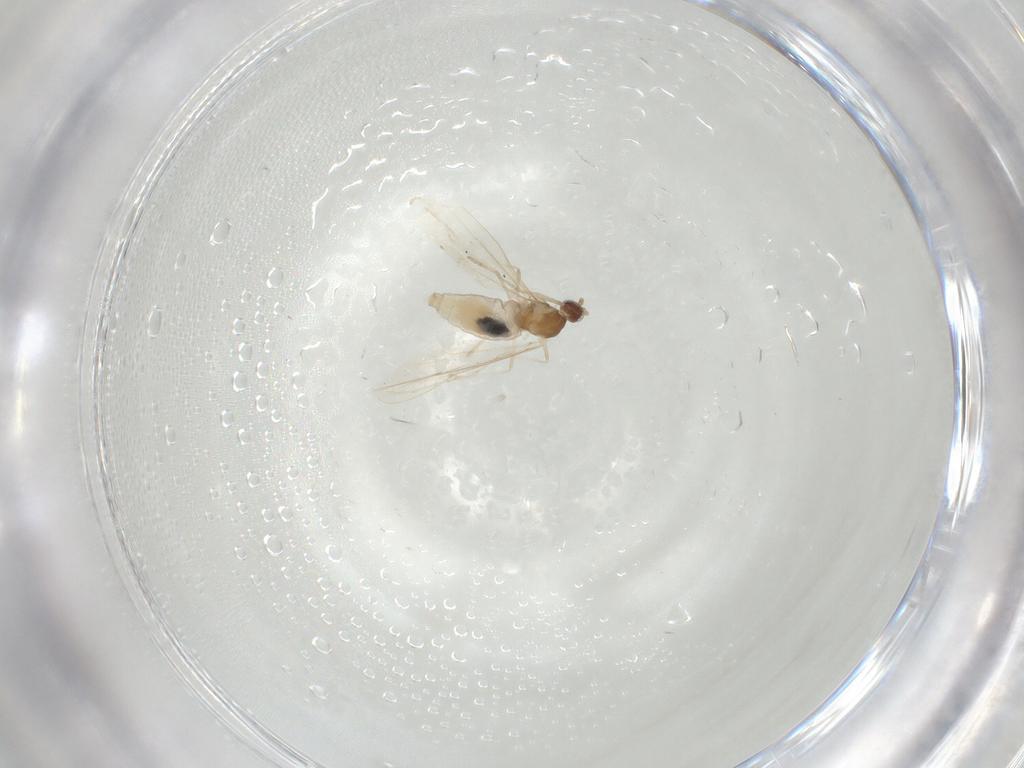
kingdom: Animalia
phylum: Arthropoda
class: Insecta
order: Diptera
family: Cecidomyiidae
